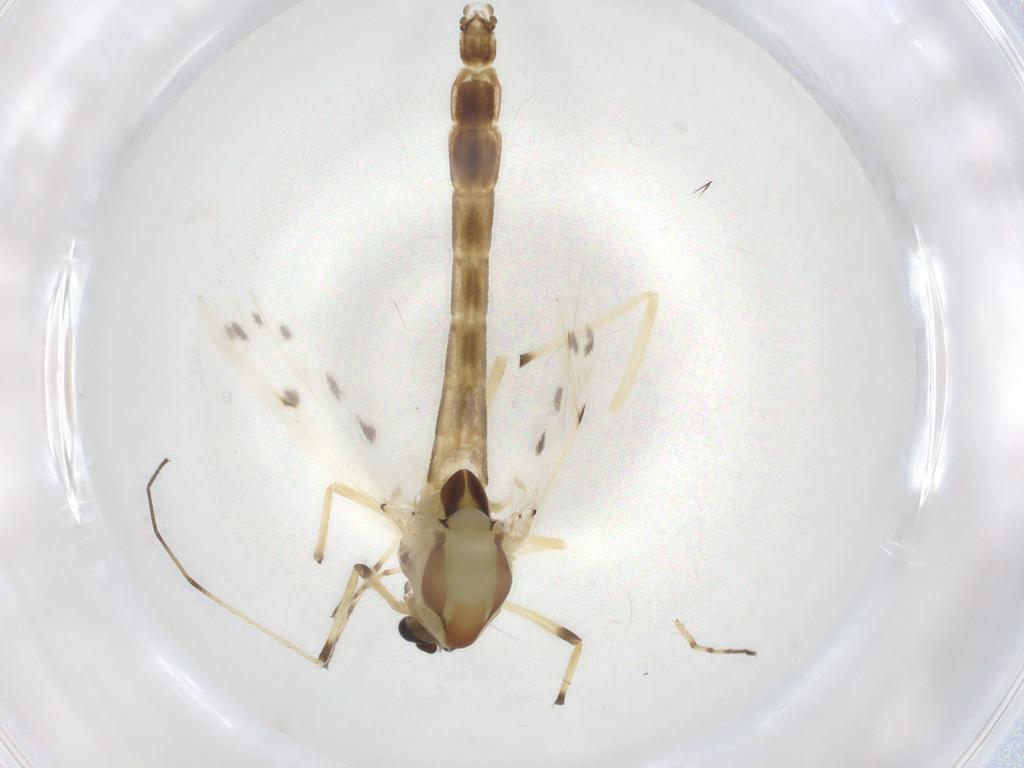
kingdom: Animalia
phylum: Arthropoda
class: Insecta
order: Diptera
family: Chironomidae
